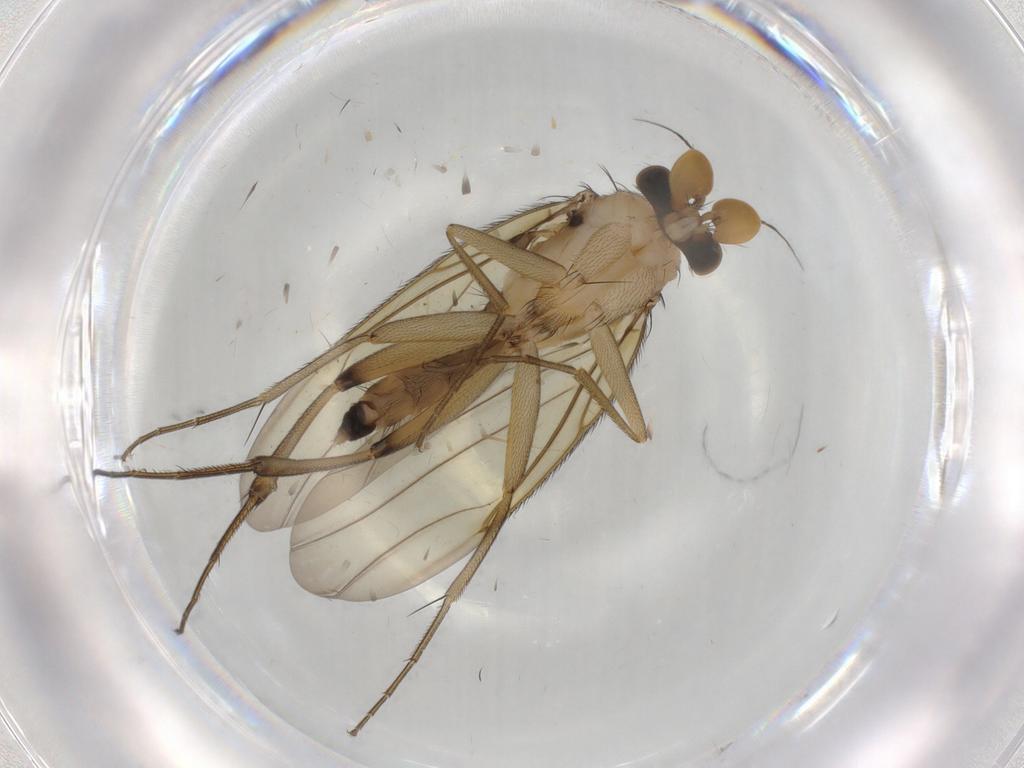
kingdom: Animalia
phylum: Arthropoda
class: Insecta
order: Diptera
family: Phoridae
